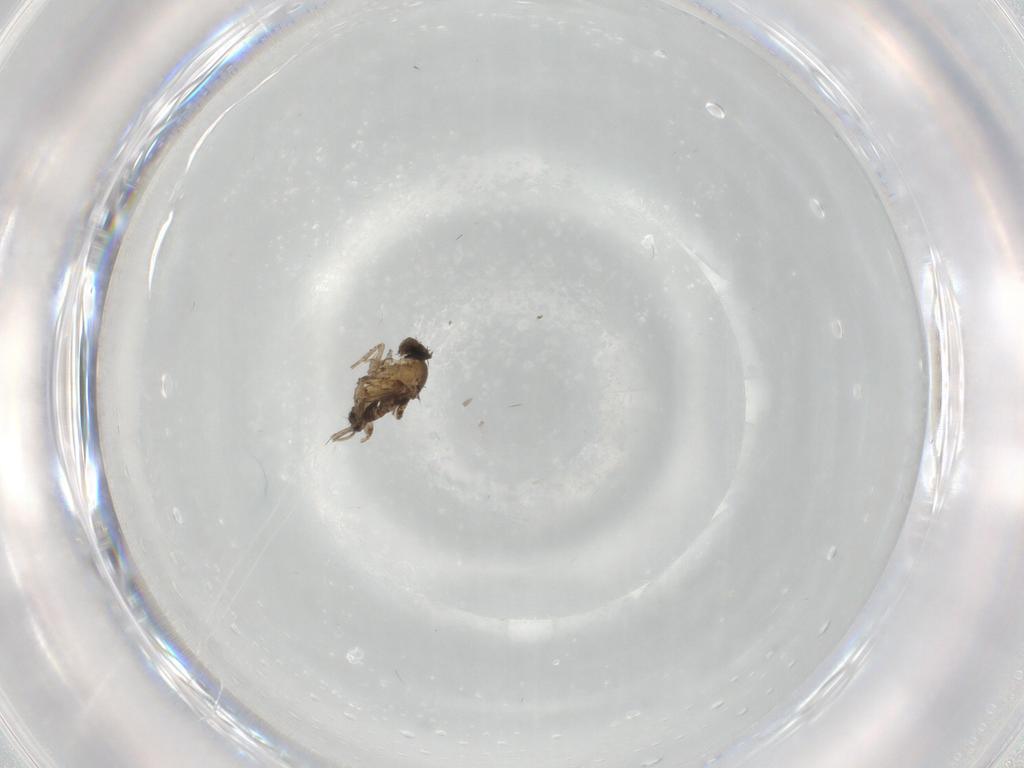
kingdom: Animalia
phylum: Arthropoda
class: Insecta
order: Diptera
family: Phoridae
